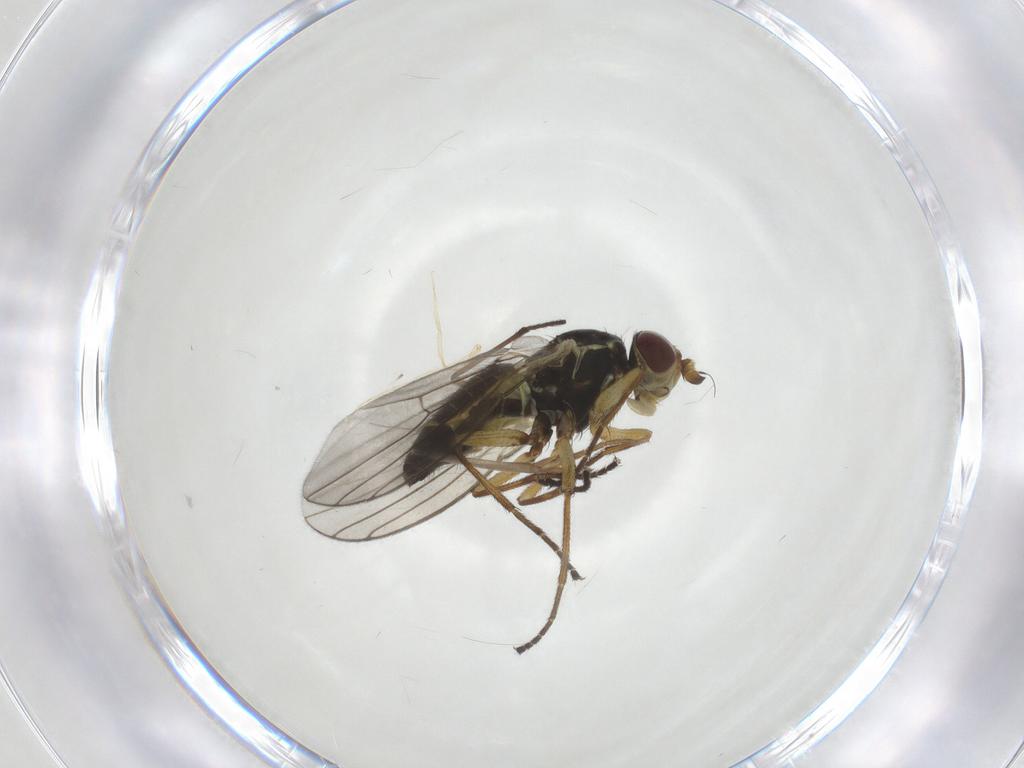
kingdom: Animalia
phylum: Arthropoda
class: Insecta
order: Diptera
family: Agromyzidae
